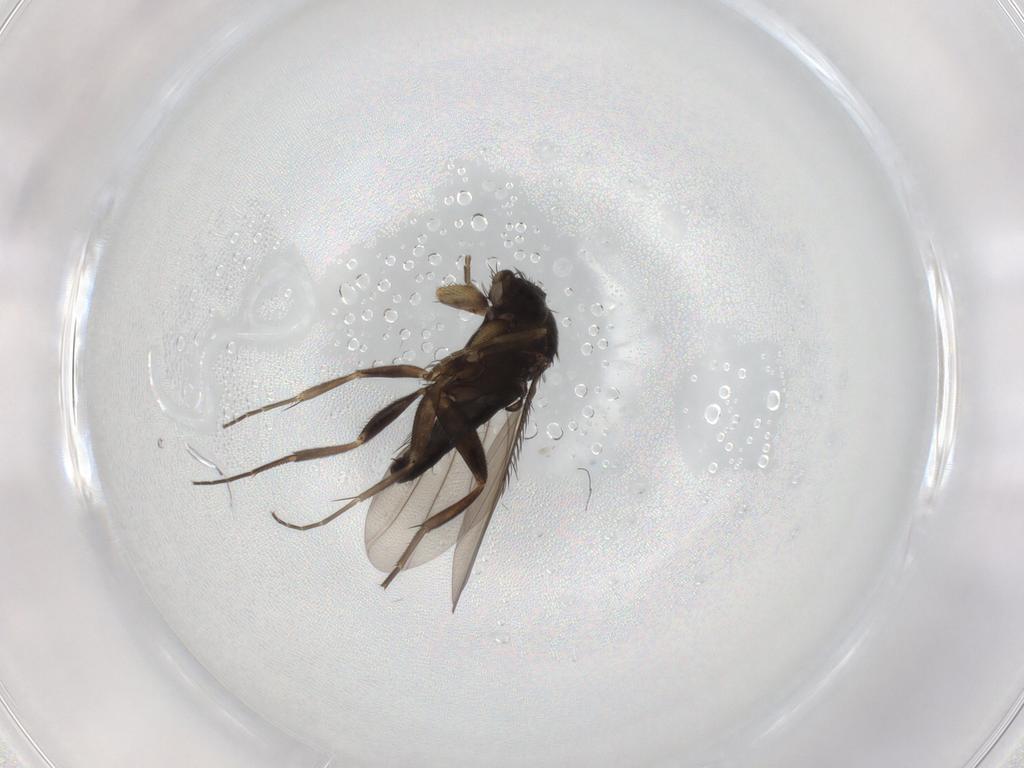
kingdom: Animalia
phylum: Arthropoda
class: Insecta
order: Diptera
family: Phoridae
